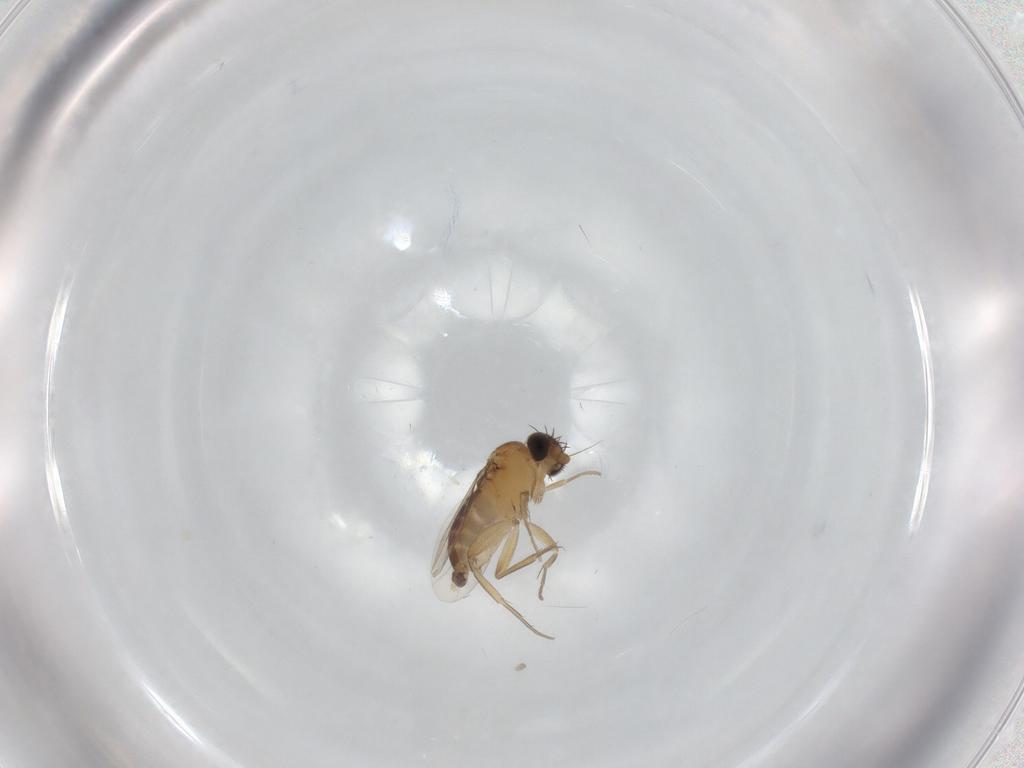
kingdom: Animalia
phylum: Arthropoda
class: Insecta
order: Diptera
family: Phoridae
